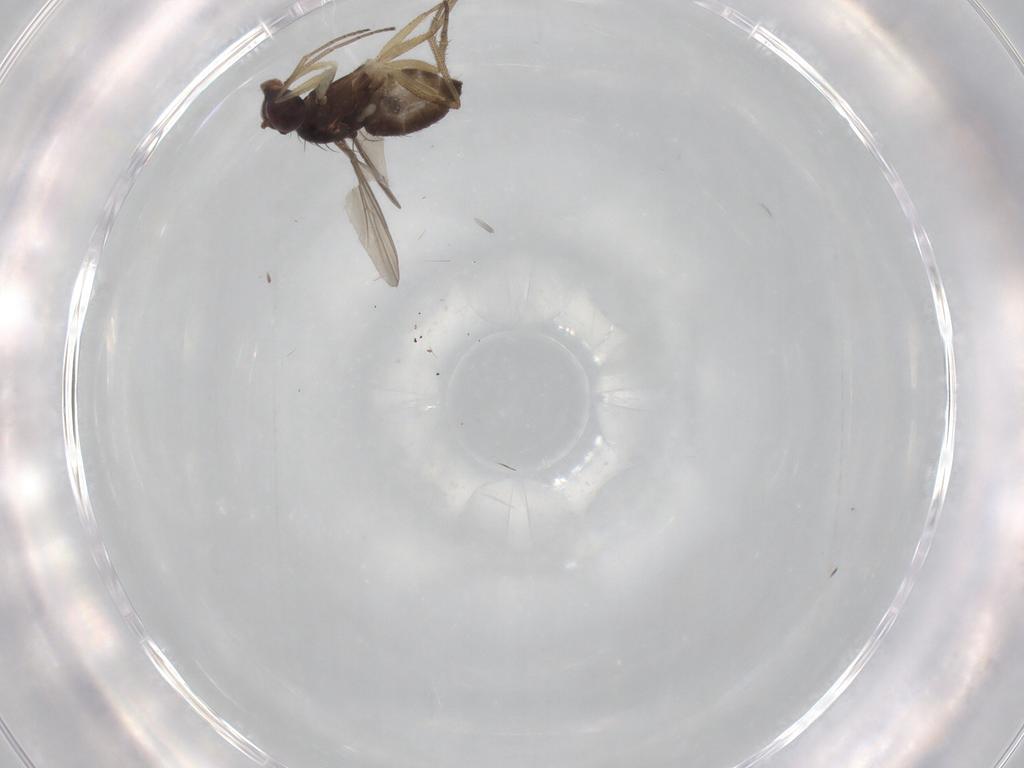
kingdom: Animalia
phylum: Arthropoda
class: Insecta
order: Diptera
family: Dolichopodidae
